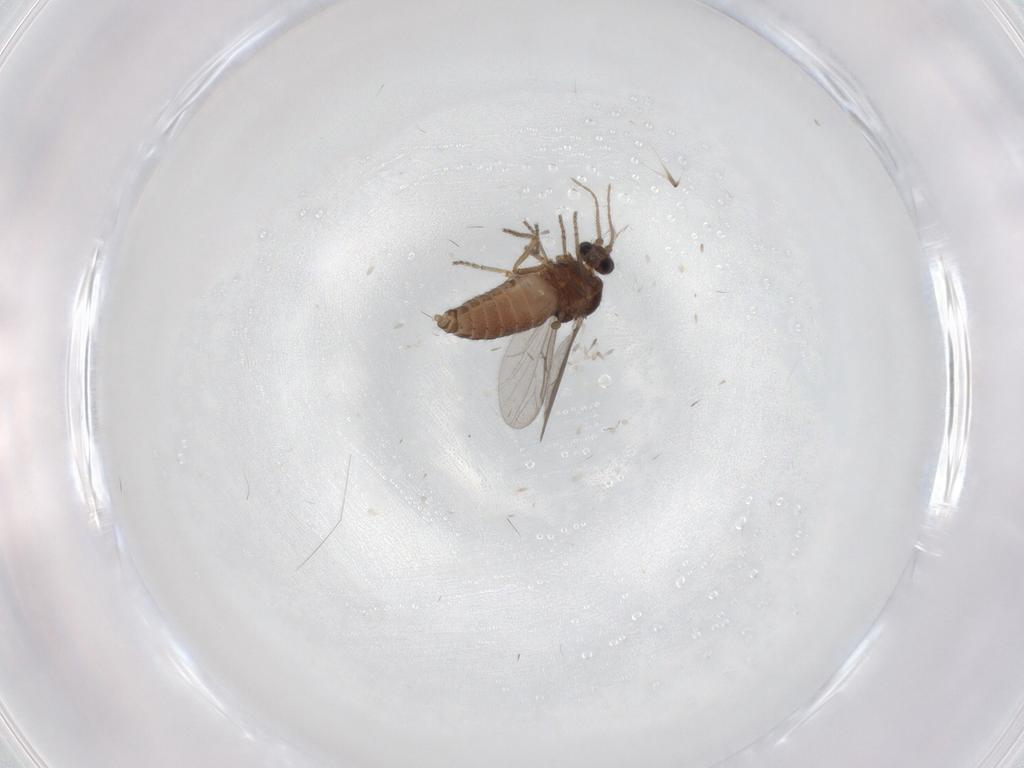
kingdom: Animalia
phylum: Arthropoda
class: Insecta
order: Diptera
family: Ceratopogonidae
